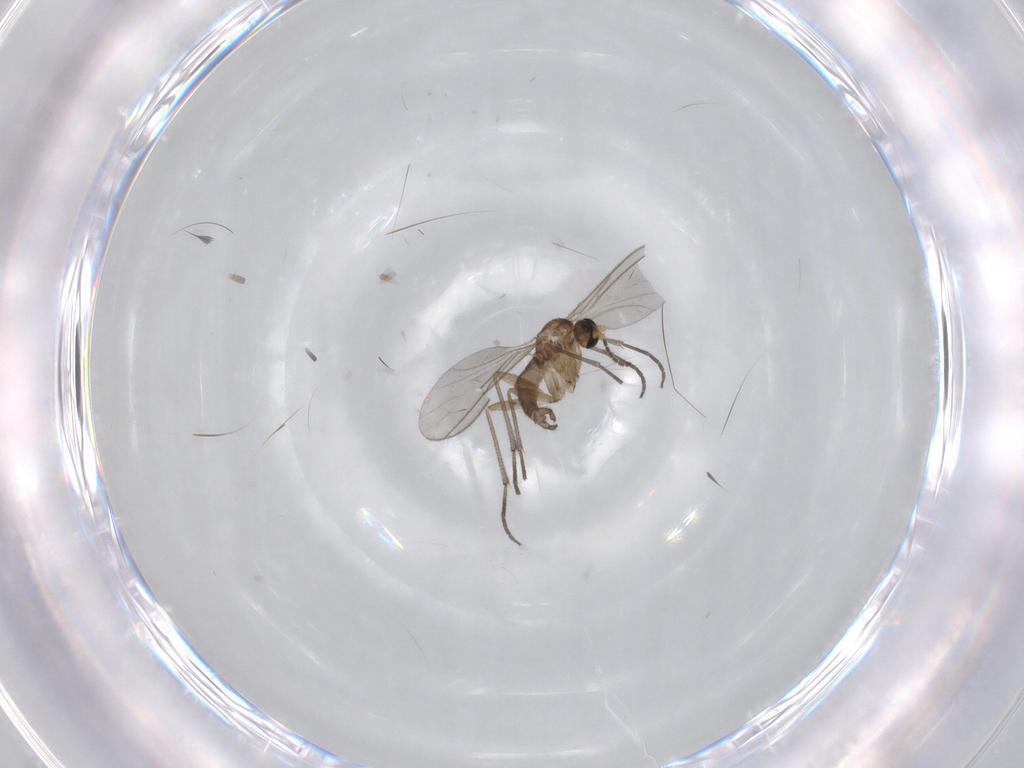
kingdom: Animalia
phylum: Arthropoda
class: Insecta
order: Diptera
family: Sciaridae
